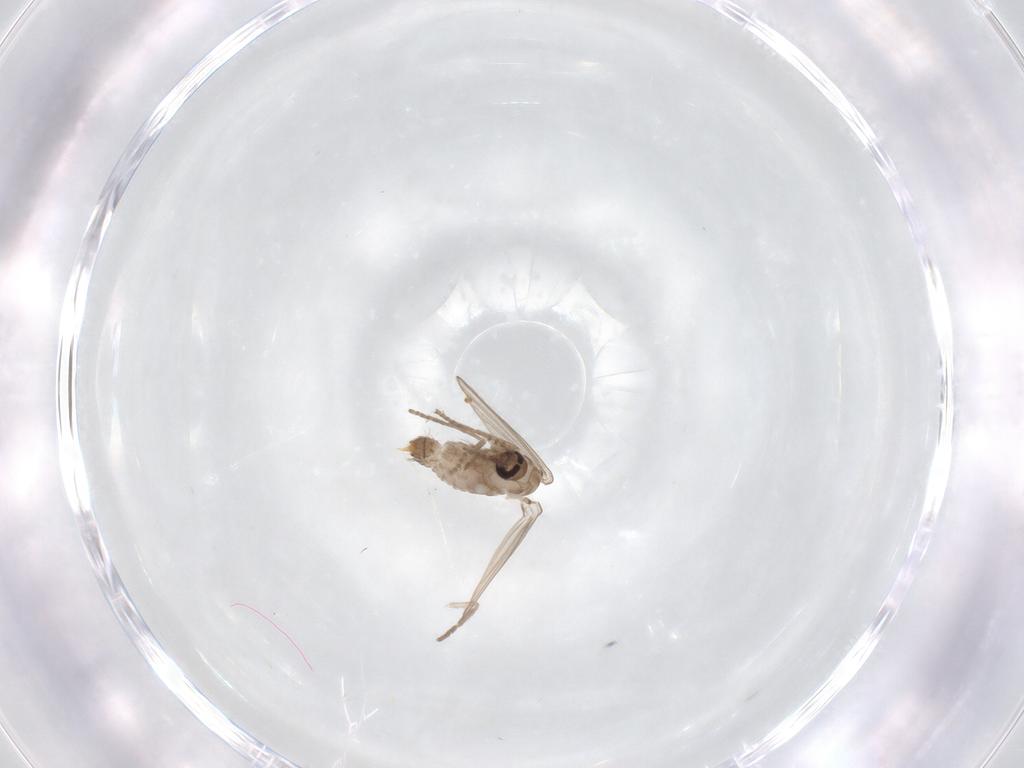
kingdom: Animalia
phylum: Arthropoda
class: Insecta
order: Diptera
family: Psychodidae
